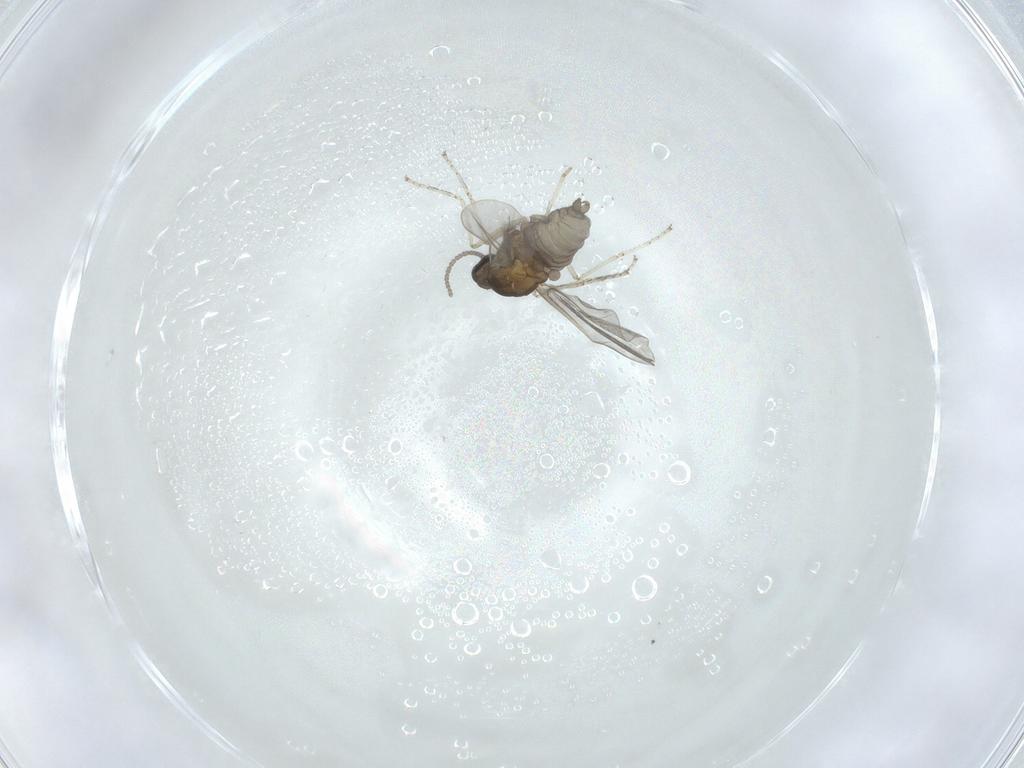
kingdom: Animalia
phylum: Arthropoda
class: Insecta
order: Diptera
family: Cecidomyiidae
